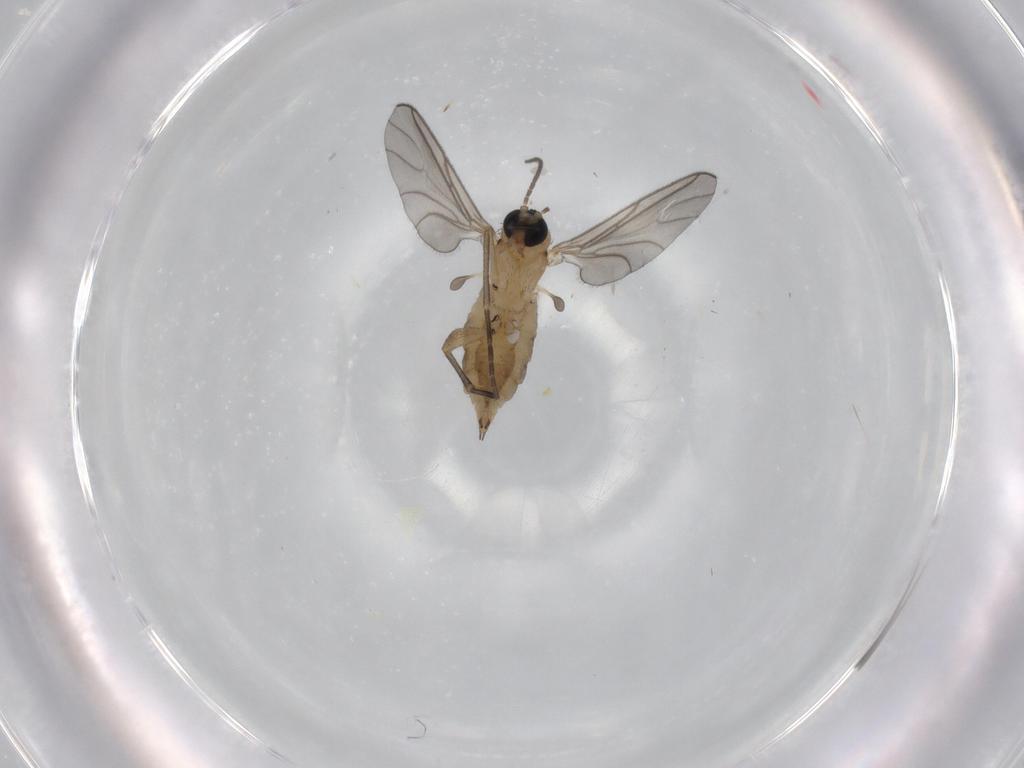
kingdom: Animalia
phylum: Arthropoda
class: Insecta
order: Diptera
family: Sciaridae
